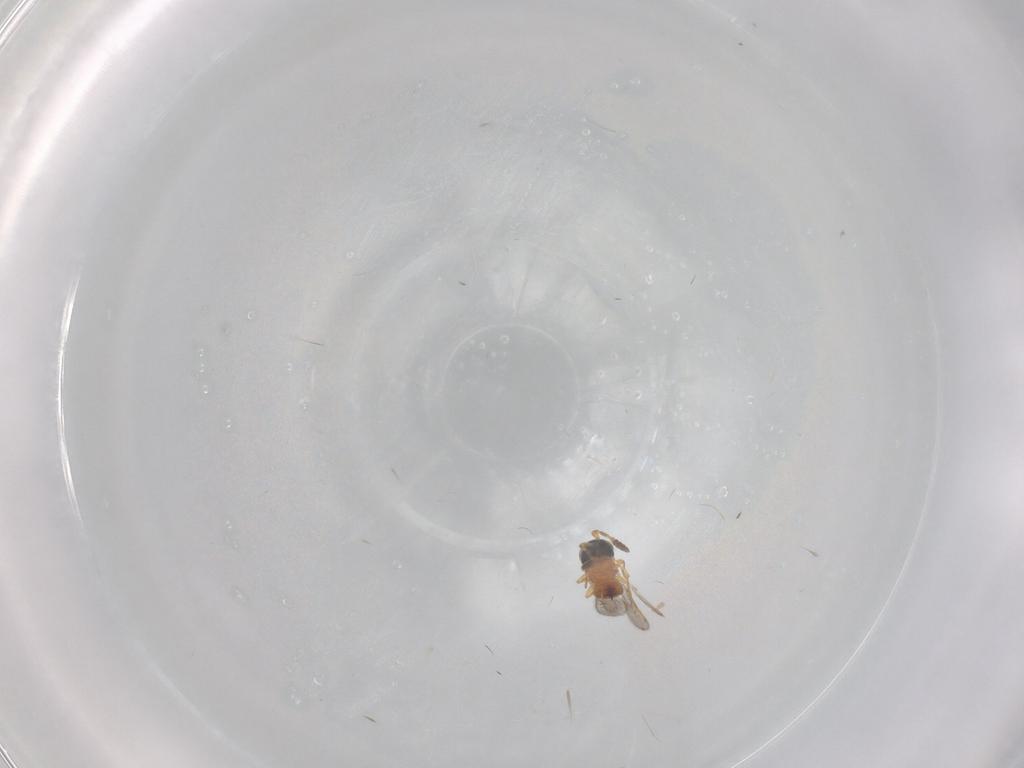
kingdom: Animalia
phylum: Arthropoda
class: Insecta
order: Hymenoptera
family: Scelionidae
